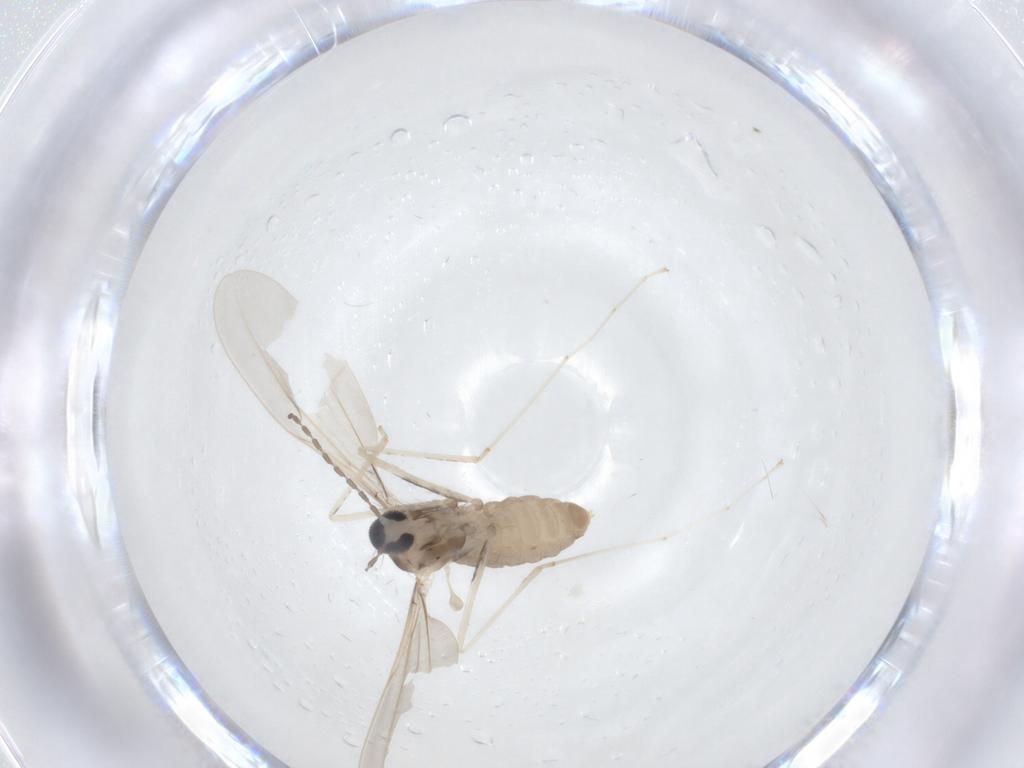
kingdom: Animalia
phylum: Arthropoda
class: Insecta
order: Diptera
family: Cecidomyiidae
